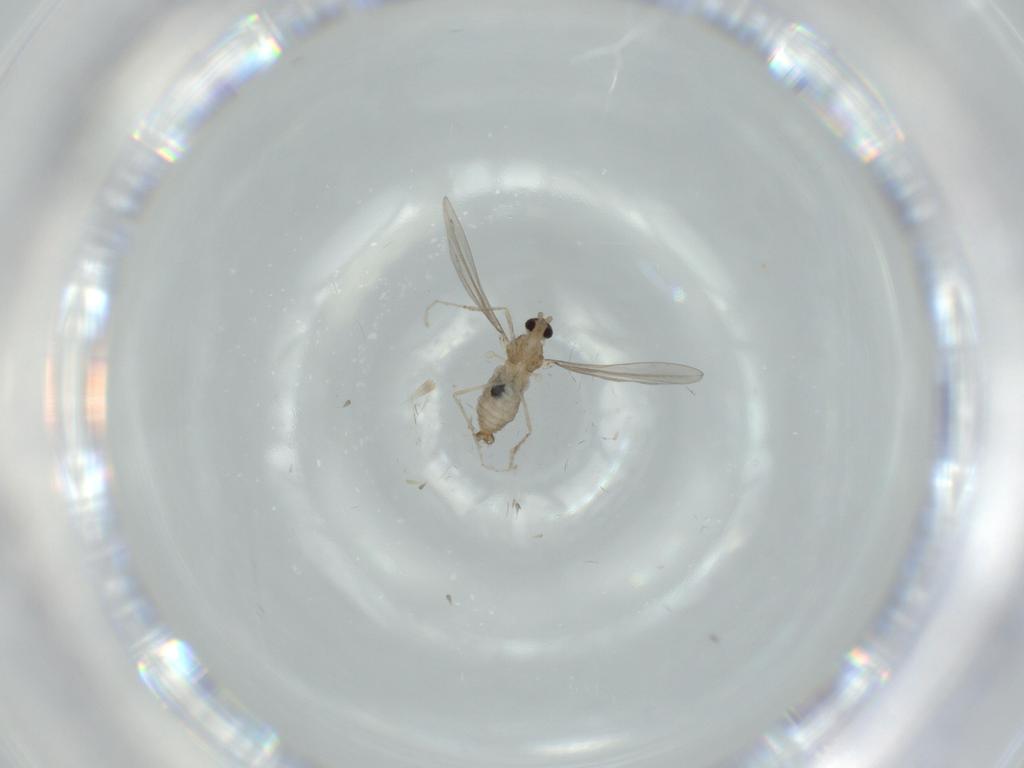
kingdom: Animalia
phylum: Arthropoda
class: Insecta
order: Diptera
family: Cecidomyiidae
